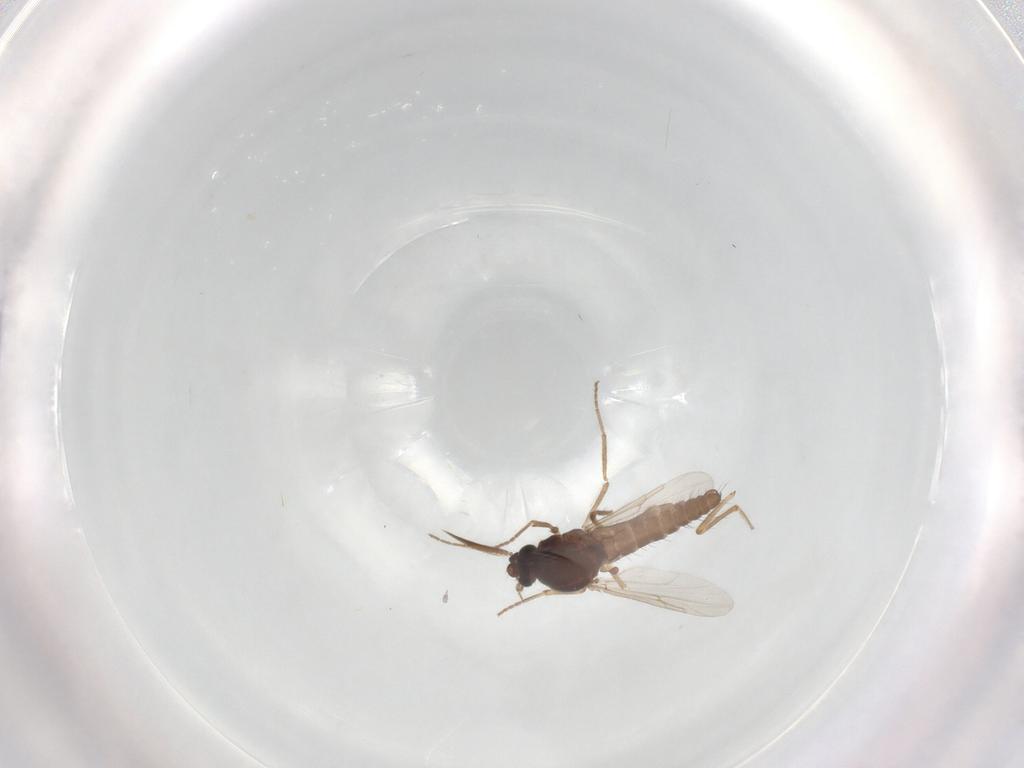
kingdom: Animalia
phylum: Arthropoda
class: Insecta
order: Diptera
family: Ceratopogonidae
